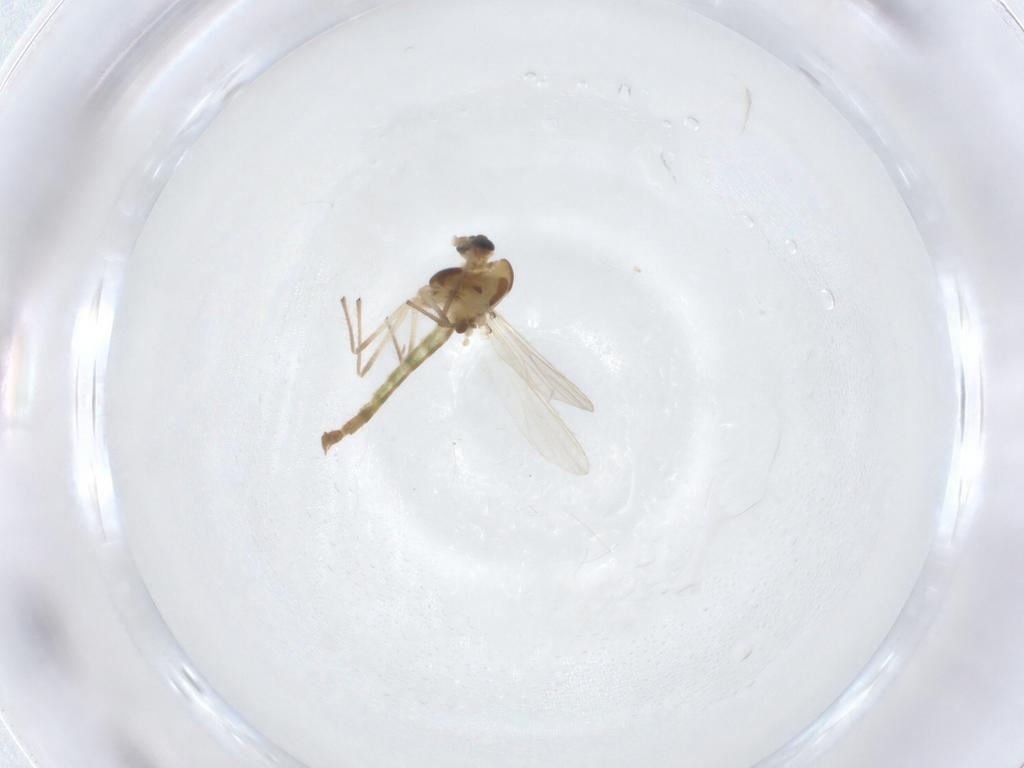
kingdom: Animalia
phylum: Arthropoda
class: Insecta
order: Diptera
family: Chironomidae
